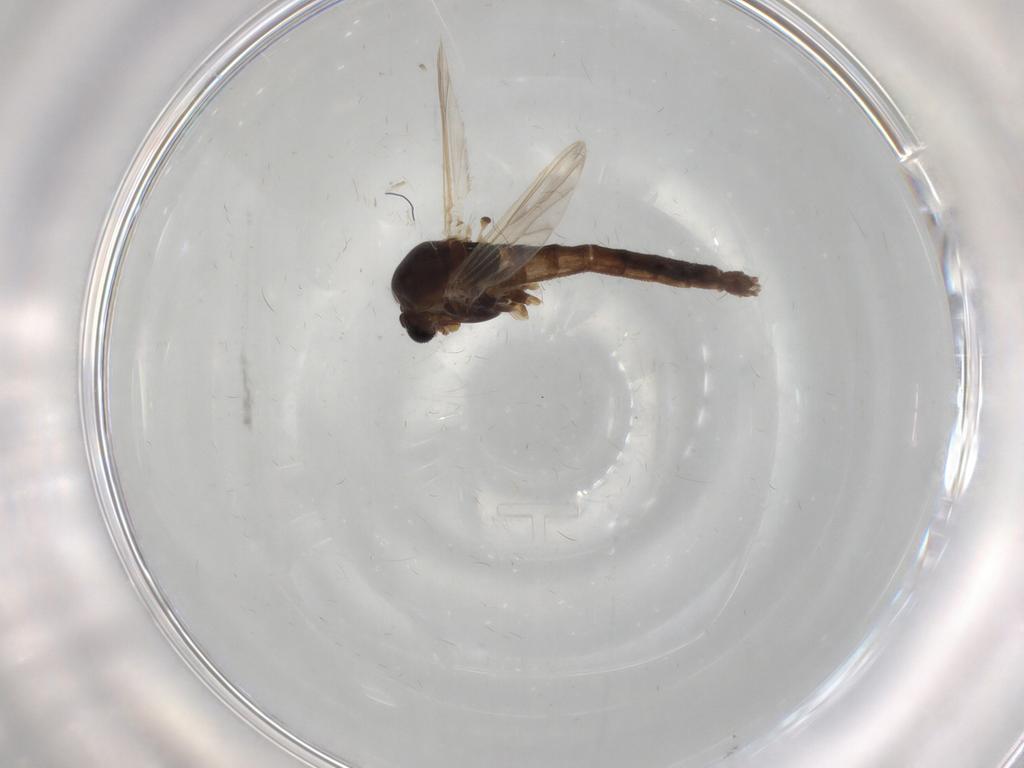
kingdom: Animalia
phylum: Arthropoda
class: Insecta
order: Diptera
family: Chironomidae
